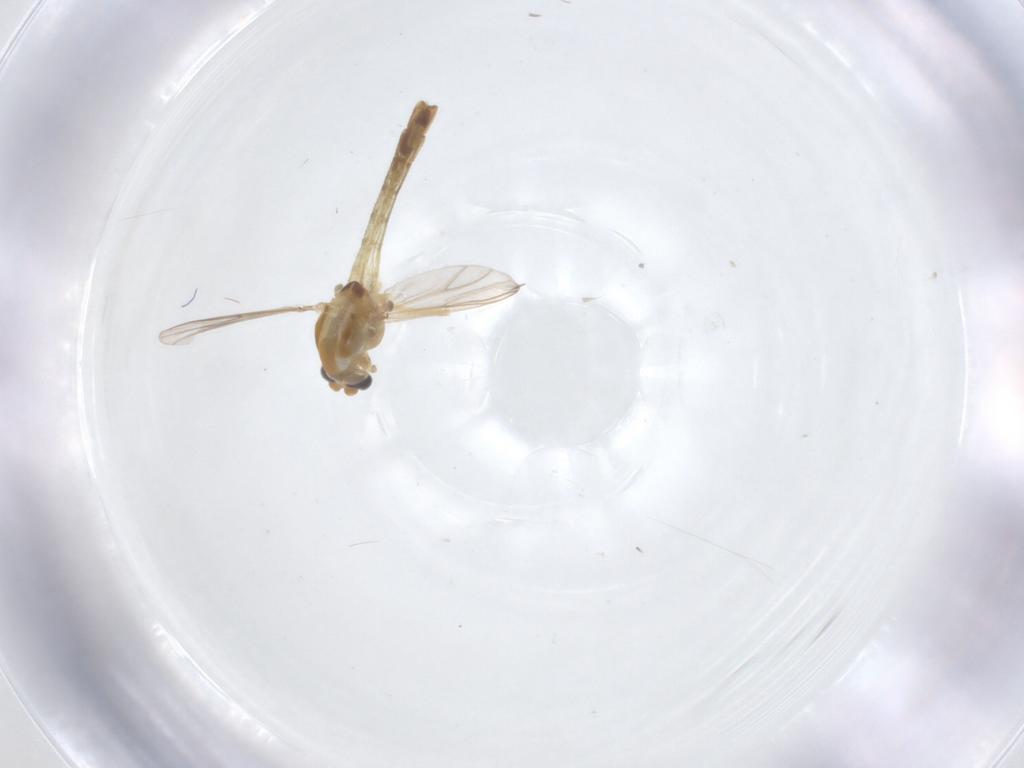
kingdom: Animalia
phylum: Arthropoda
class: Insecta
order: Diptera
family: Chironomidae
